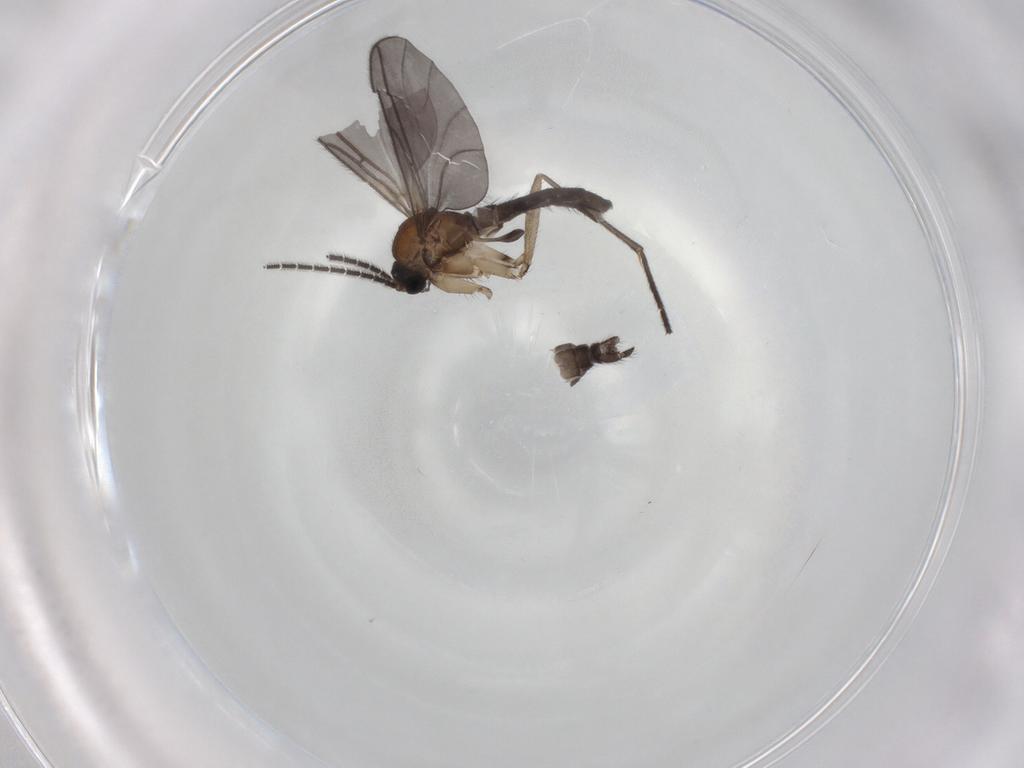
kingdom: Animalia
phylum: Arthropoda
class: Insecta
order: Diptera
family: Sciaridae
